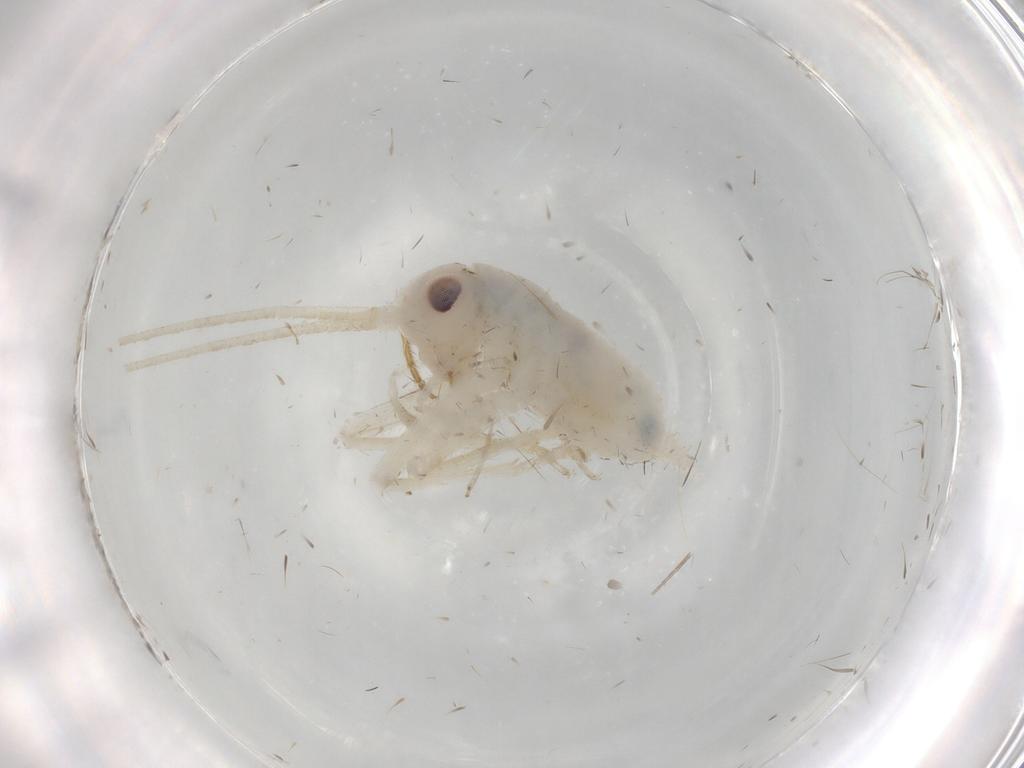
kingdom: Animalia
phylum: Arthropoda
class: Insecta
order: Orthoptera
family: Trigonidiidae
